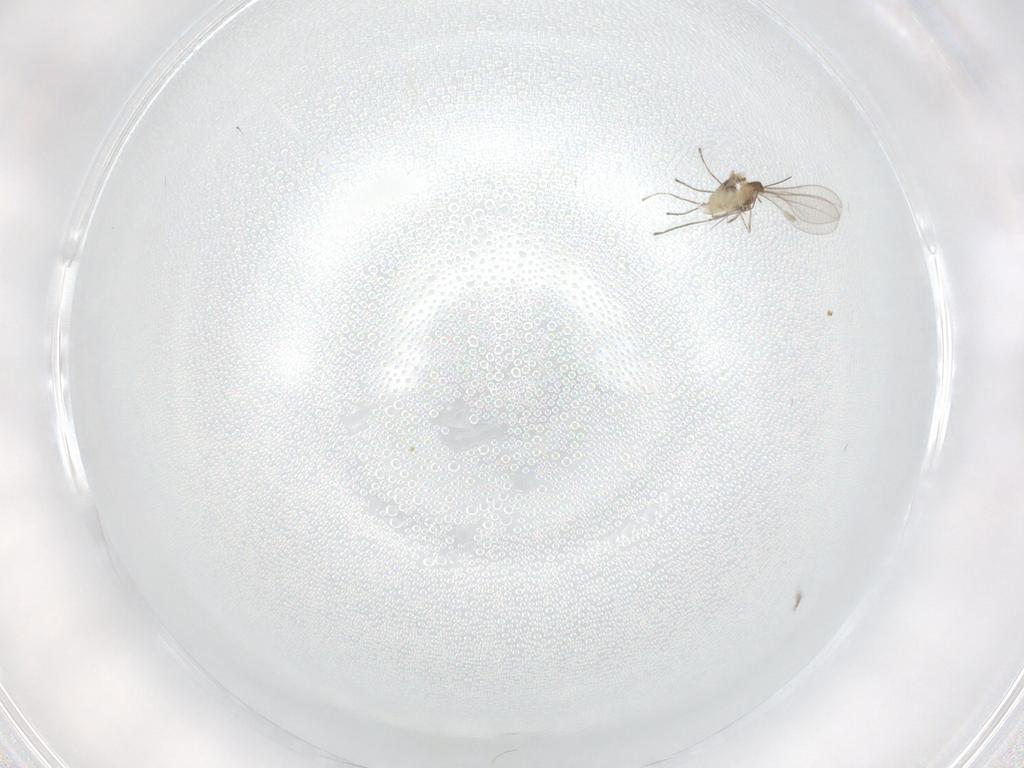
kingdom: Animalia
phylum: Arthropoda
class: Insecta
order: Diptera
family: Cecidomyiidae
